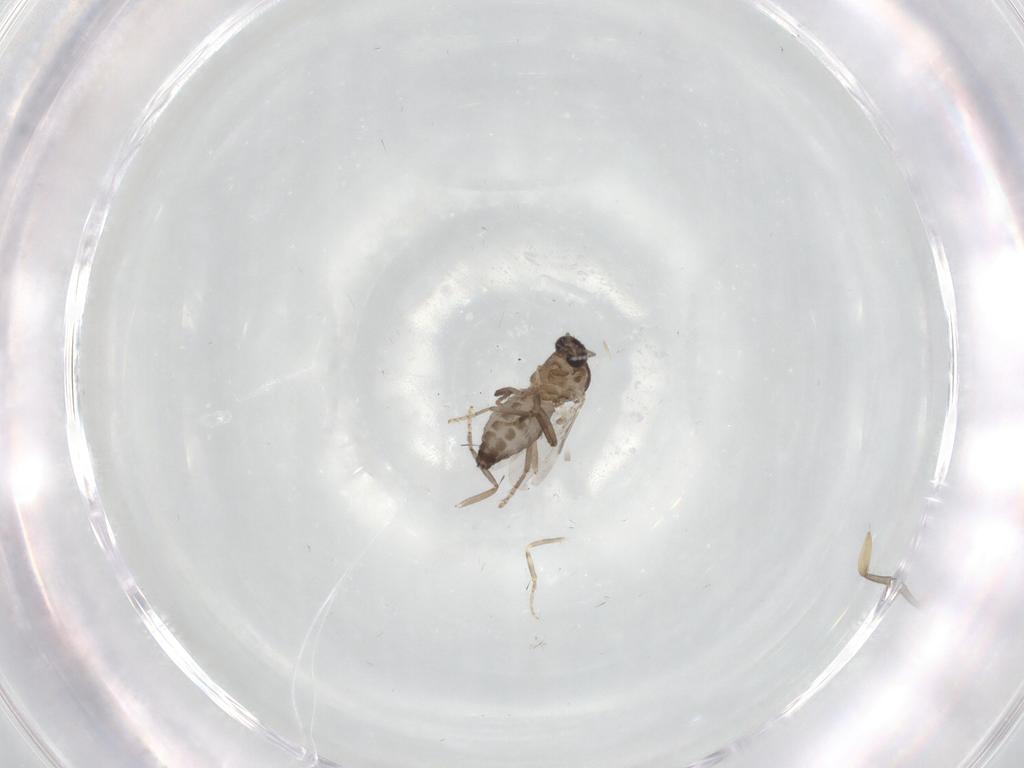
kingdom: Animalia
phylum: Arthropoda
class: Insecta
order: Diptera
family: Ceratopogonidae
